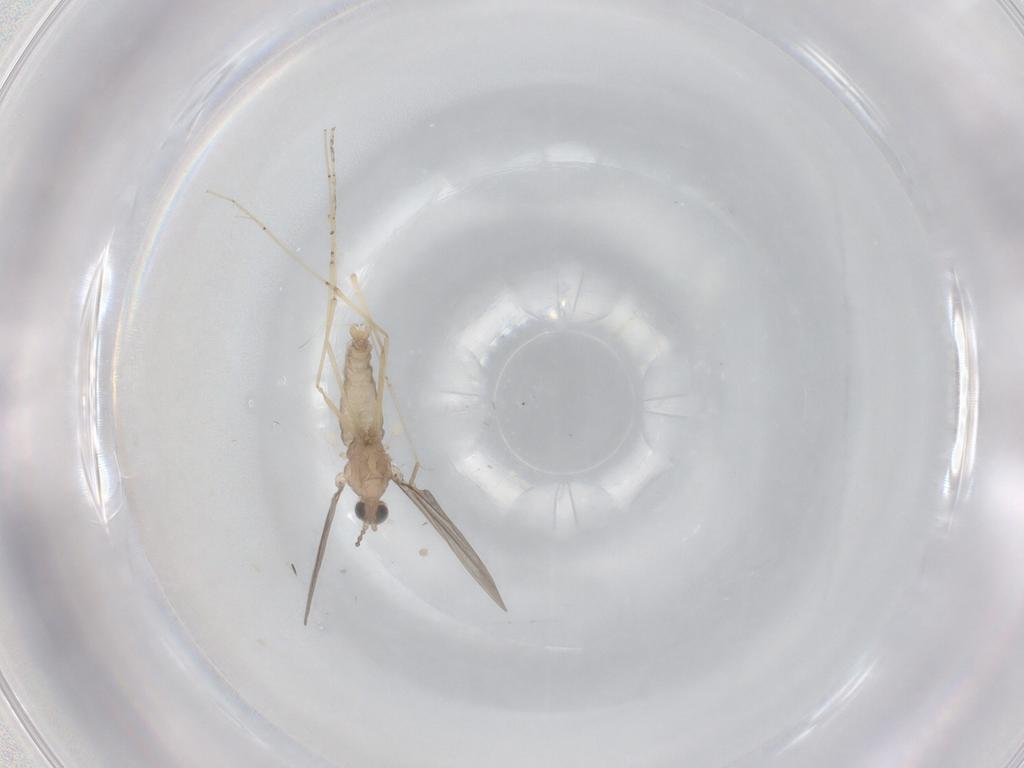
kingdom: Animalia
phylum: Arthropoda
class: Insecta
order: Diptera
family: Cecidomyiidae
